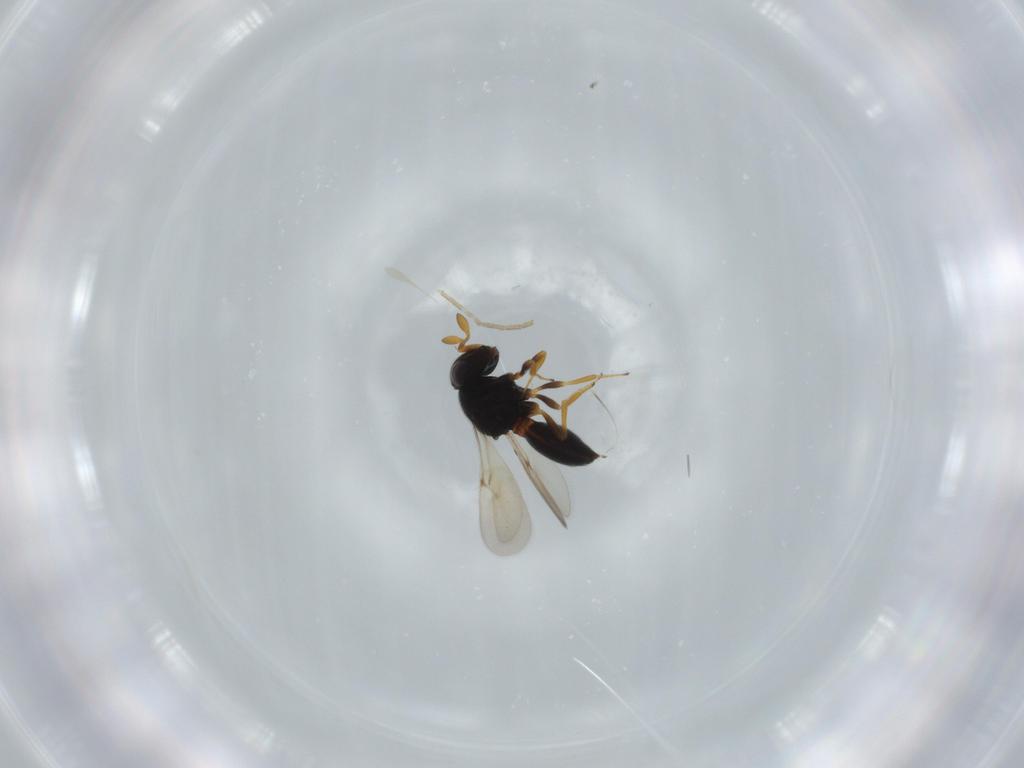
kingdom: Animalia
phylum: Arthropoda
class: Insecta
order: Hymenoptera
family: Scelionidae
